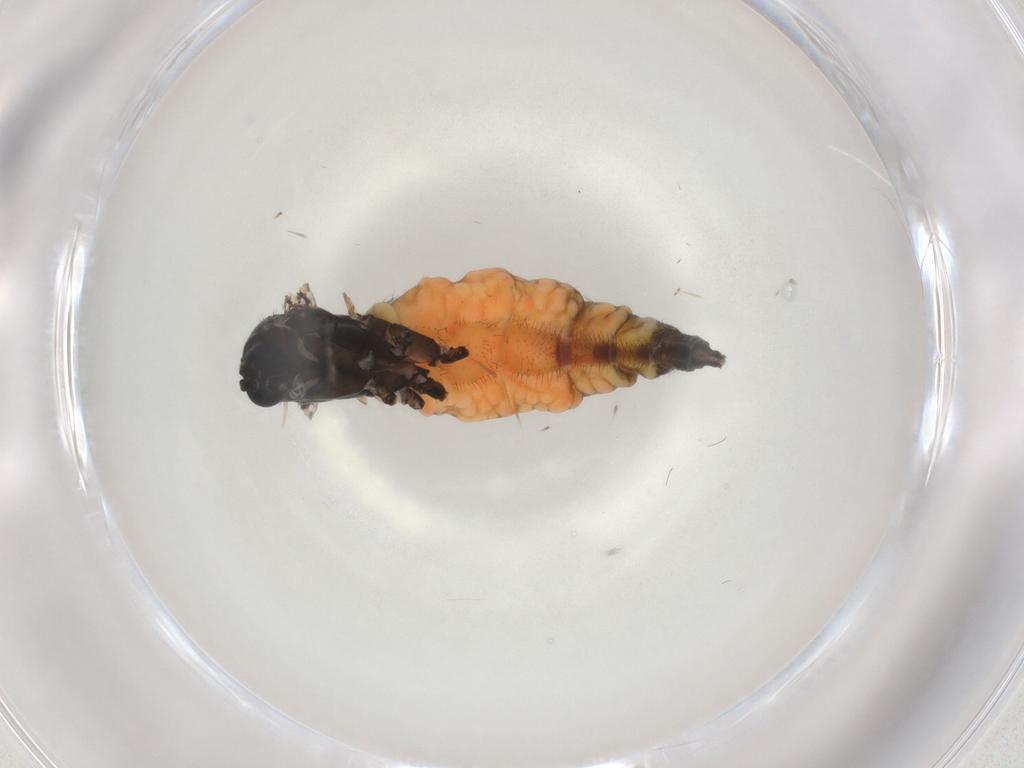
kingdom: Animalia
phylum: Arthropoda
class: Insecta
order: Diptera
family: Sciaridae
